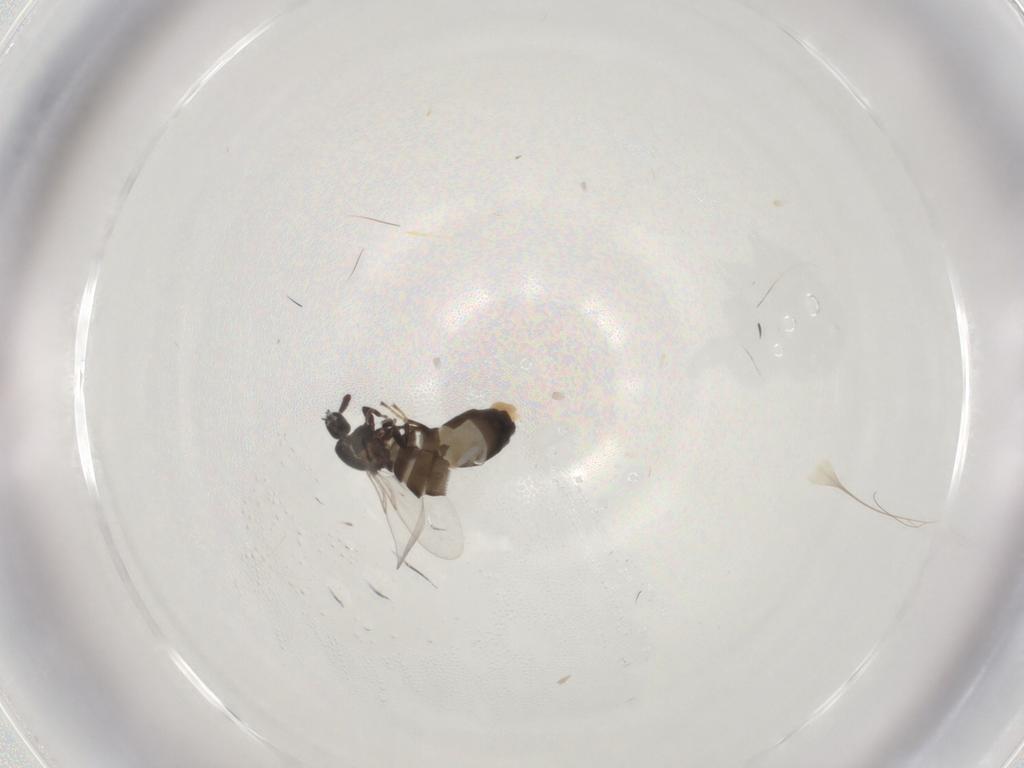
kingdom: Animalia
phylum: Arthropoda
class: Insecta
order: Diptera
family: Scatopsidae
